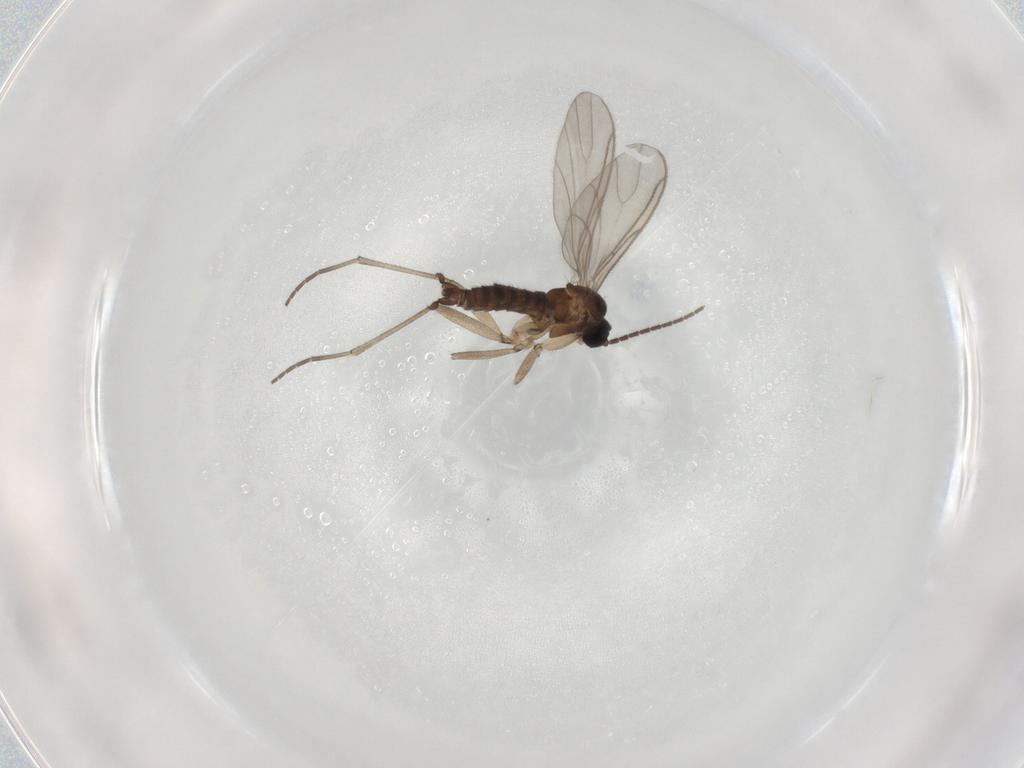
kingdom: Animalia
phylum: Arthropoda
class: Insecta
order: Diptera
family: Sciaridae
